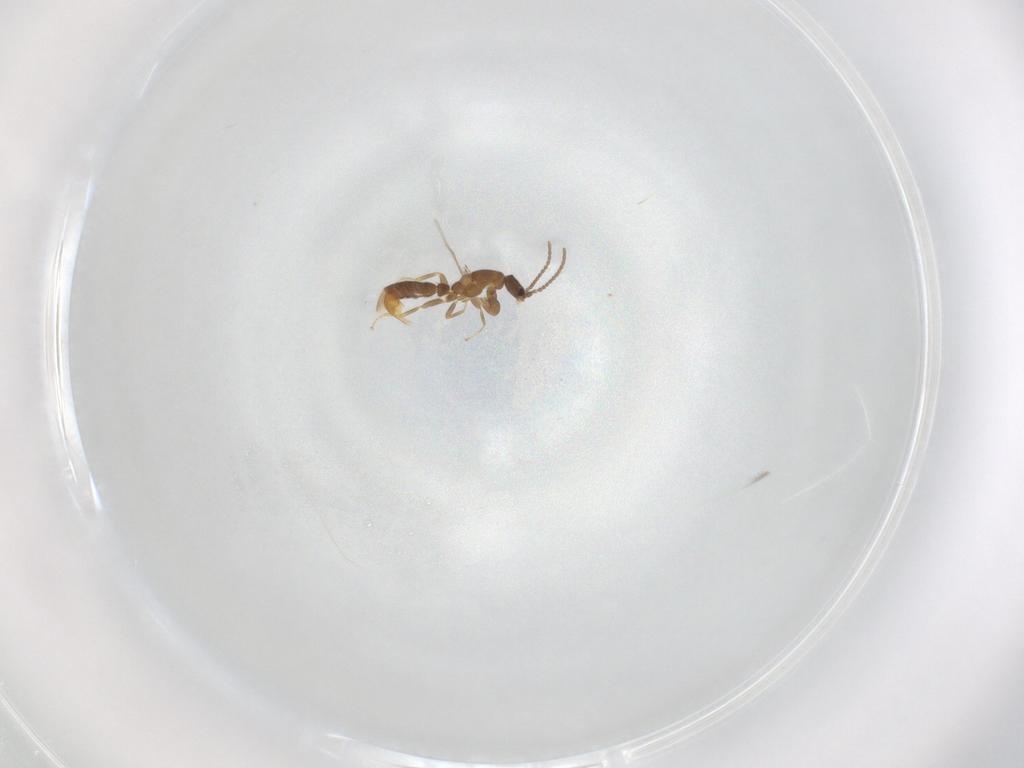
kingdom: Animalia
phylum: Arthropoda
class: Insecta
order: Hymenoptera
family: Formicidae
